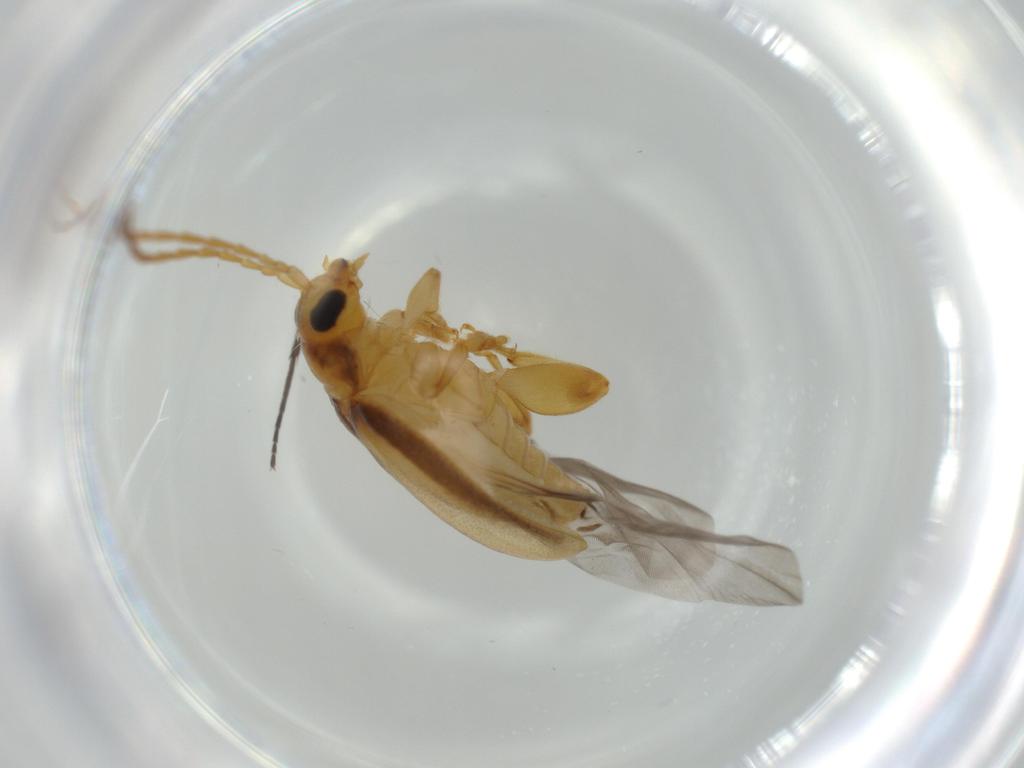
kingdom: Animalia
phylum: Arthropoda
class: Insecta
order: Coleoptera
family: Chrysomelidae
